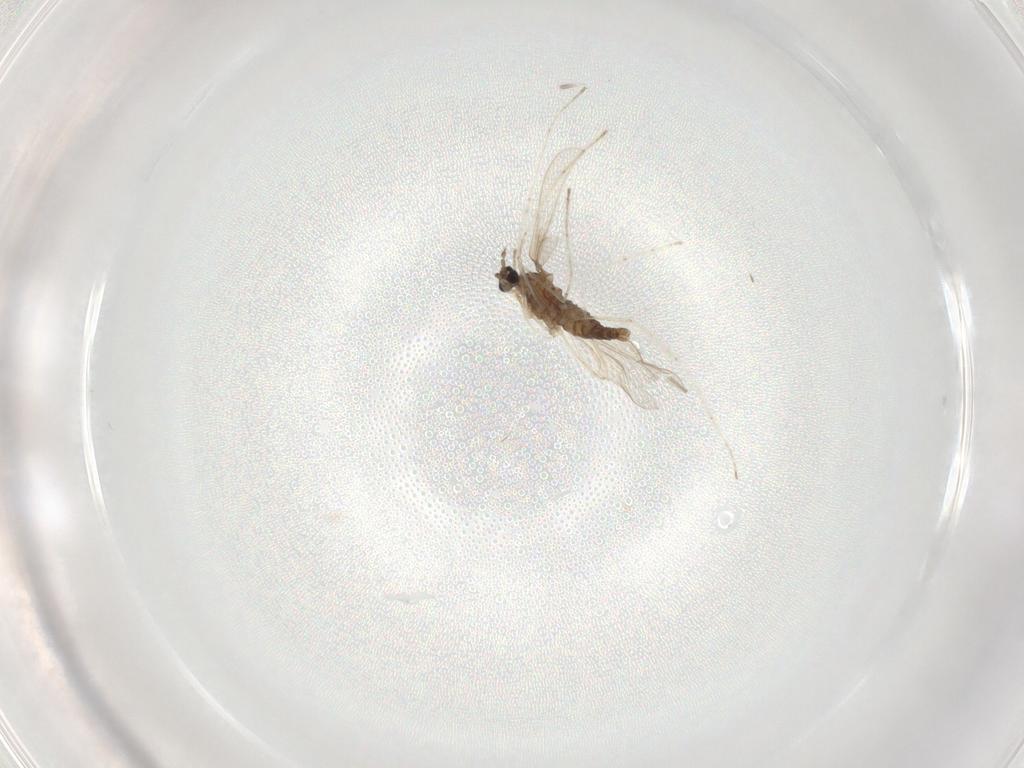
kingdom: Animalia
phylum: Arthropoda
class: Insecta
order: Diptera
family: Cecidomyiidae
